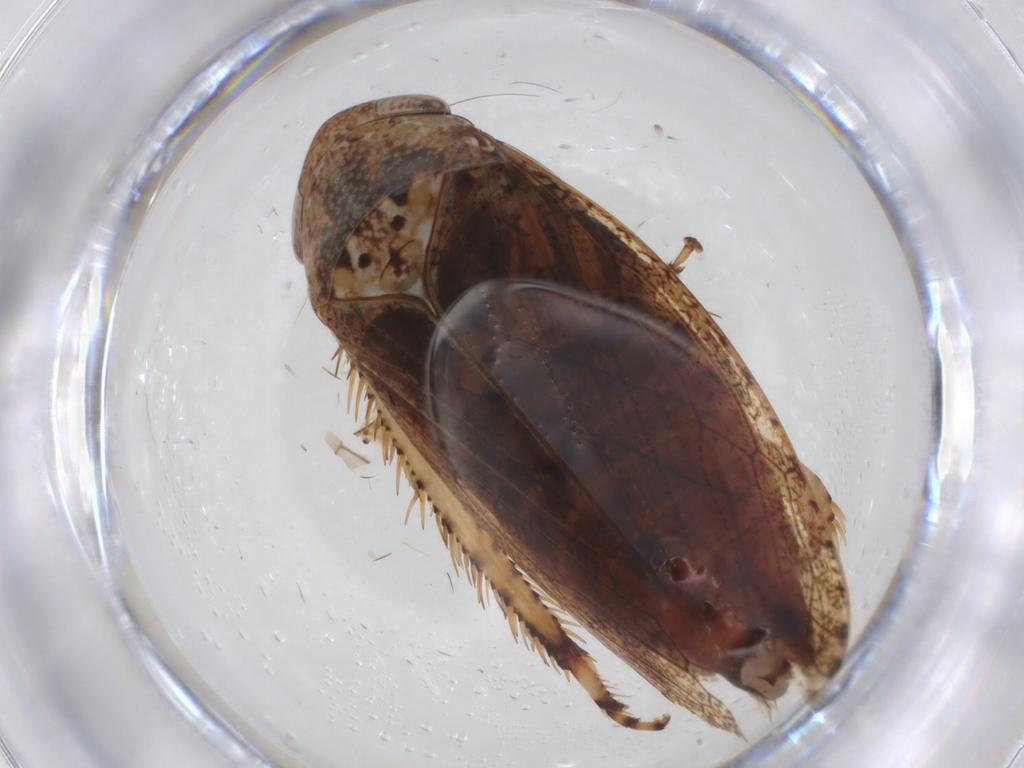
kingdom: Animalia
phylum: Arthropoda
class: Insecta
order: Hemiptera
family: Cicadellidae
